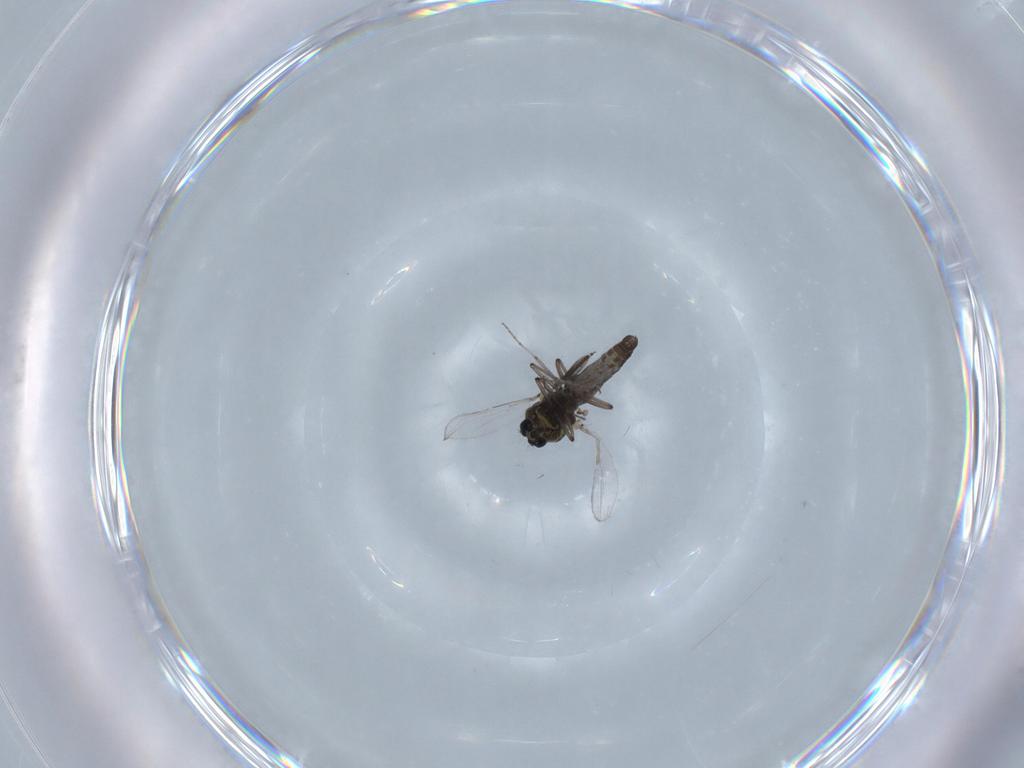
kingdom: Animalia
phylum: Arthropoda
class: Insecta
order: Diptera
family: Ceratopogonidae
